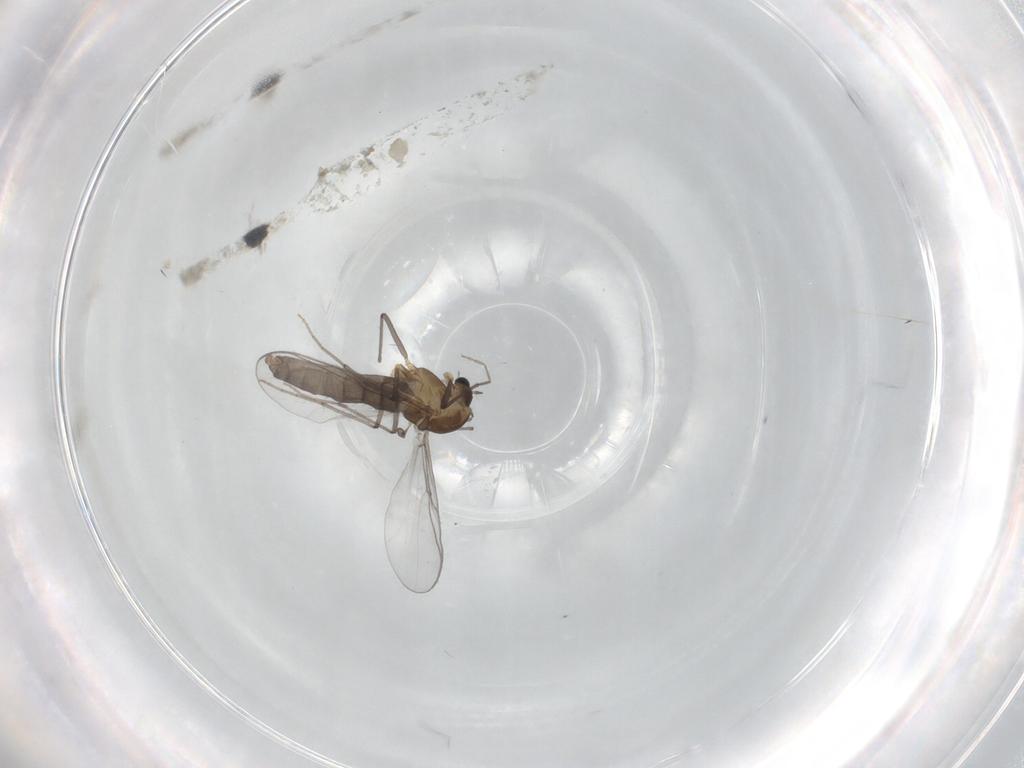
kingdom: Animalia
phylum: Arthropoda
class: Insecta
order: Diptera
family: Chironomidae
